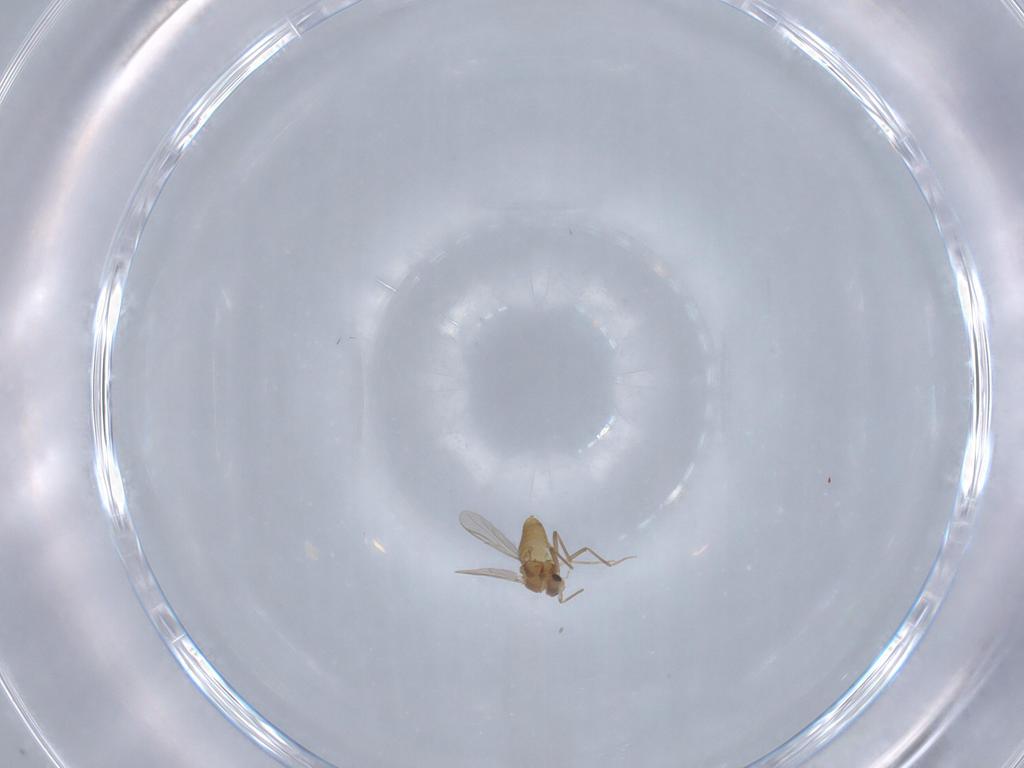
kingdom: Animalia
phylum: Arthropoda
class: Insecta
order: Diptera
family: Chironomidae
